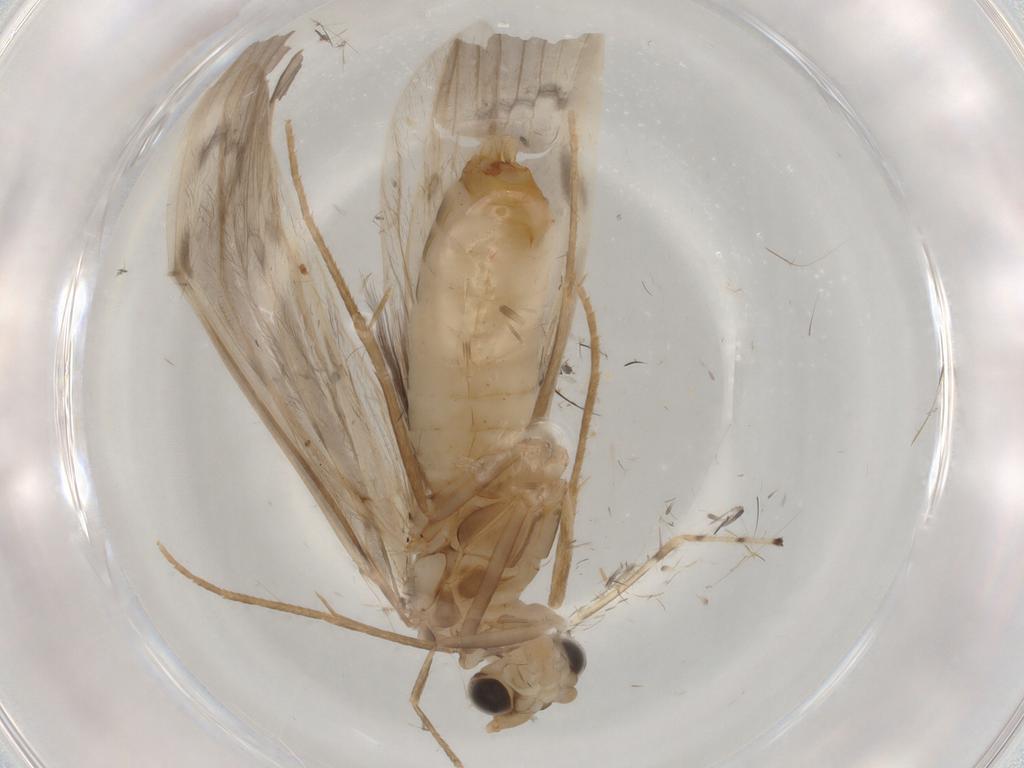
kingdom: Animalia
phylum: Arthropoda
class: Insecta
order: Trichoptera
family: Leptoceridae
